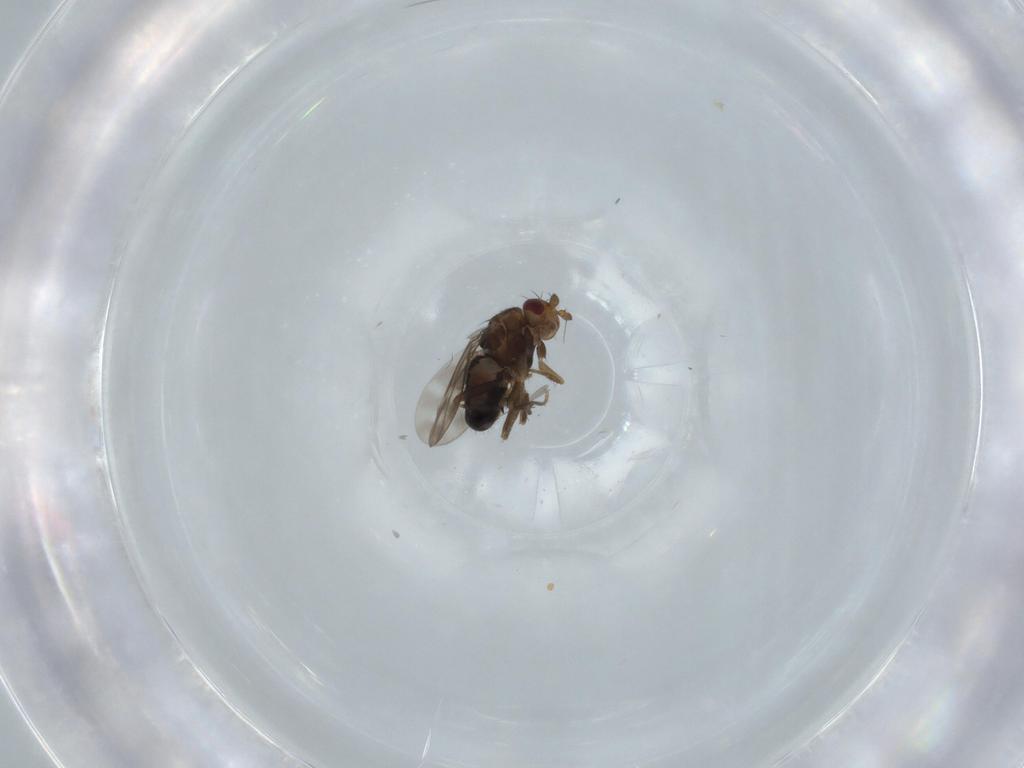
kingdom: Animalia
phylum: Arthropoda
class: Insecta
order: Diptera
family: Sphaeroceridae
